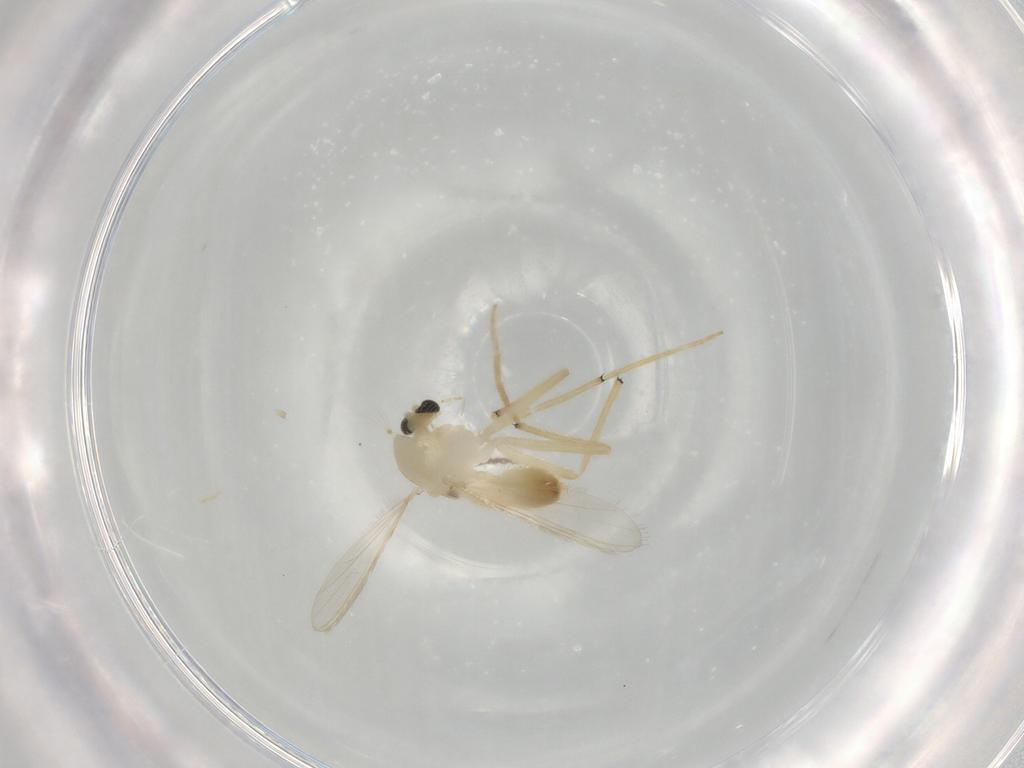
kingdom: Animalia
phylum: Arthropoda
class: Insecta
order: Diptera
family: Chironomidae
